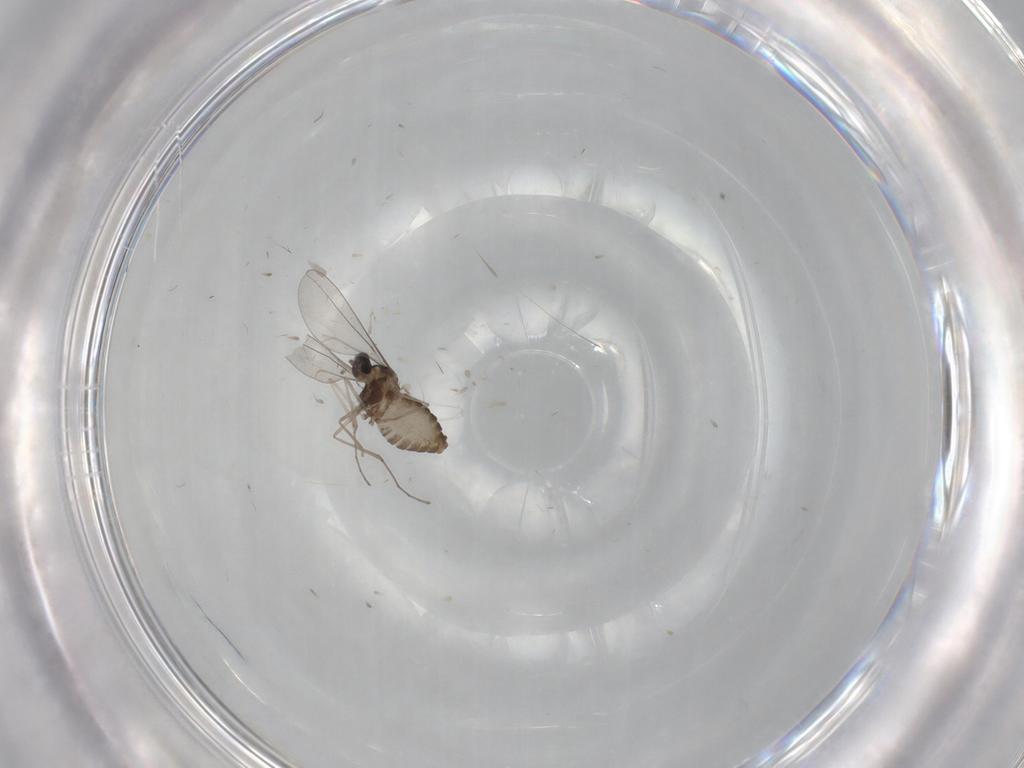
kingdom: Animalia
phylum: Arthropoda
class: Insecta
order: Diptera
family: Cecidomyiidae
